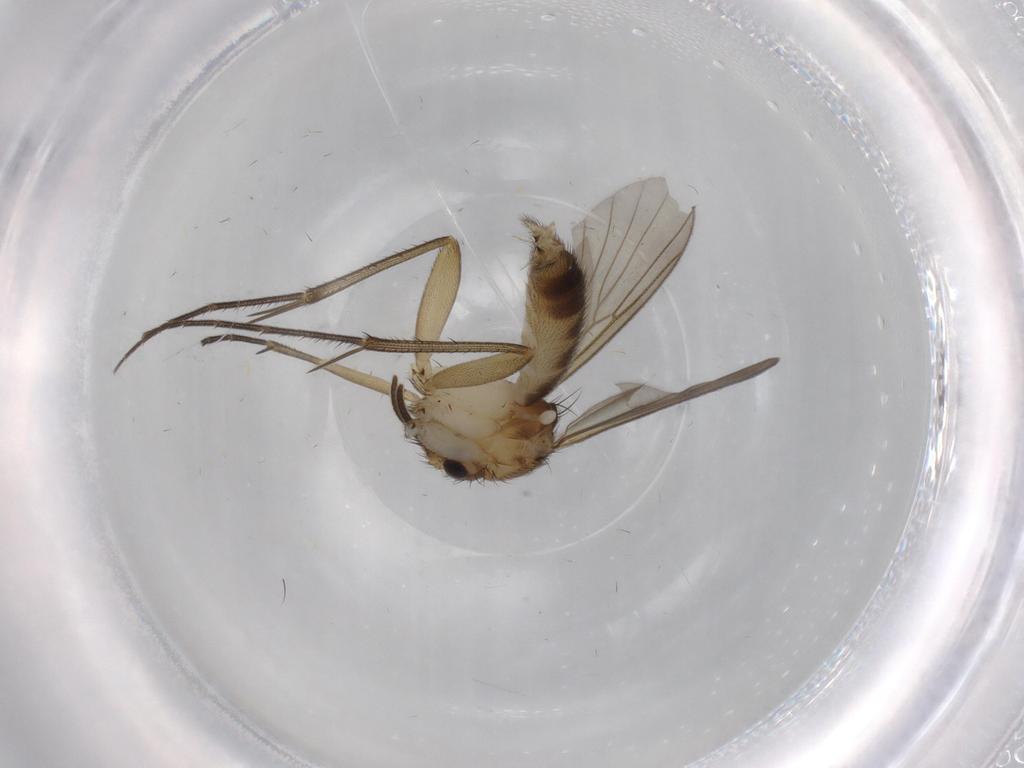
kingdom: Animalia
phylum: Arthropoda
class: Insecta
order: Diptera
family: Mycetophilidae
